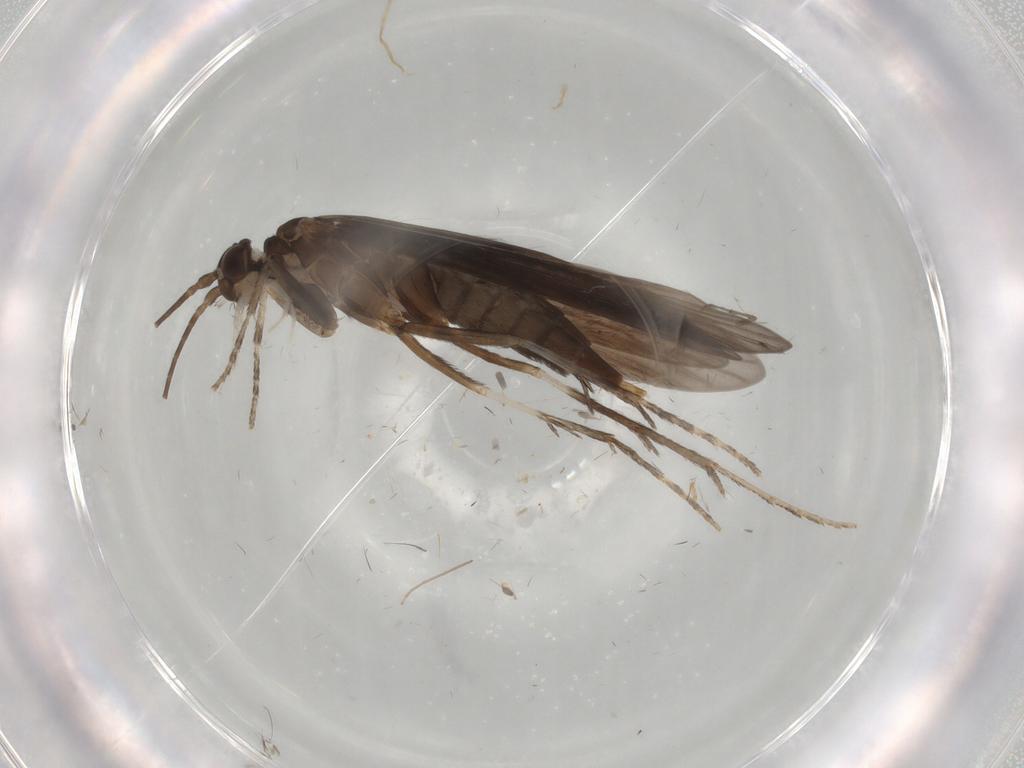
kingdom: Animalia
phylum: Arthropoda
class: Insecta
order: Trichoptera
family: Xiphocentronidae
